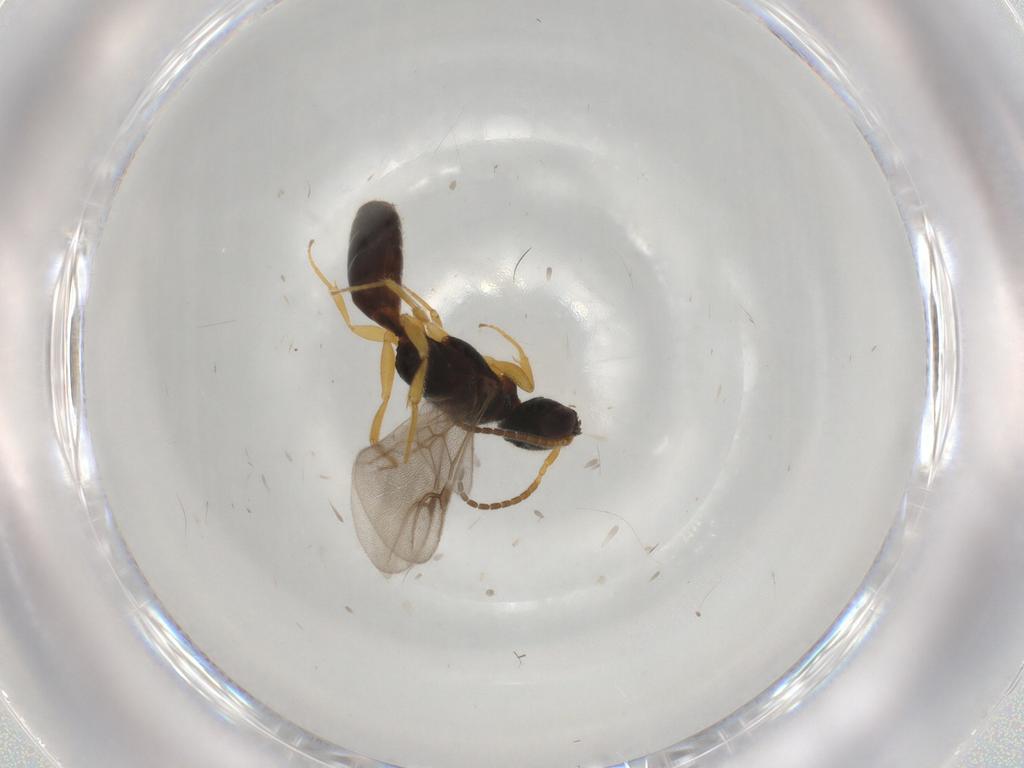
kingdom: Animalia
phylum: Arthropoda
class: Insecta
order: Hymenoptera
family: Bethylidae
